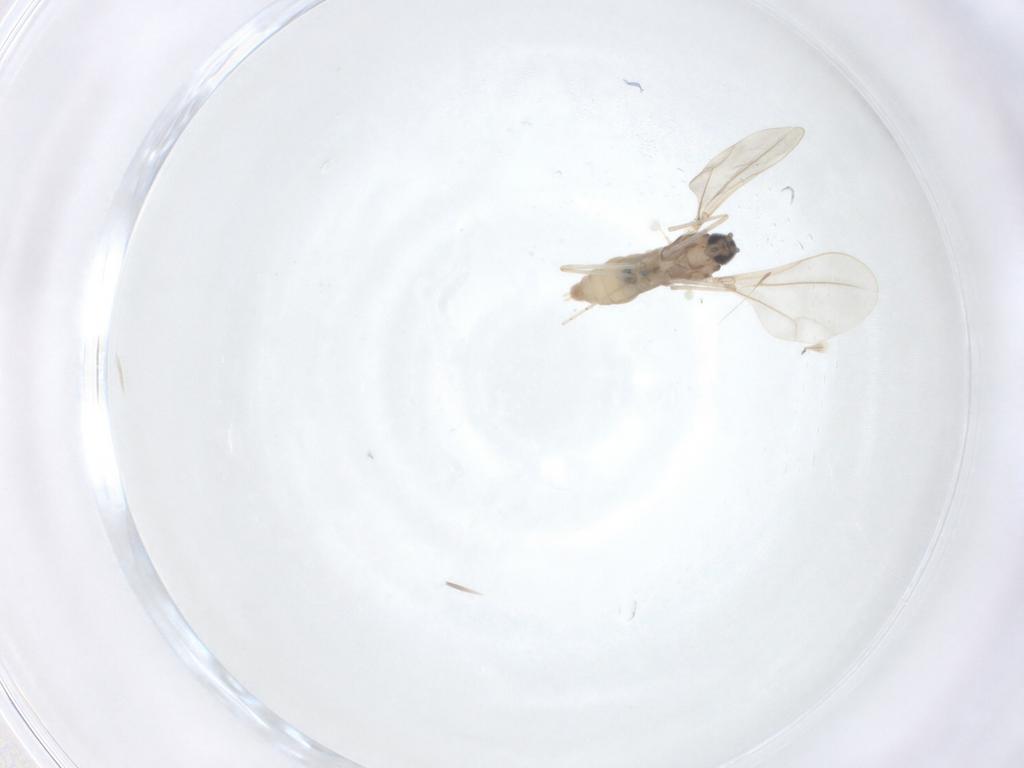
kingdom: Animalia
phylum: Arthropoda
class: Insecta
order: Diptera
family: Cecidomyiidae
